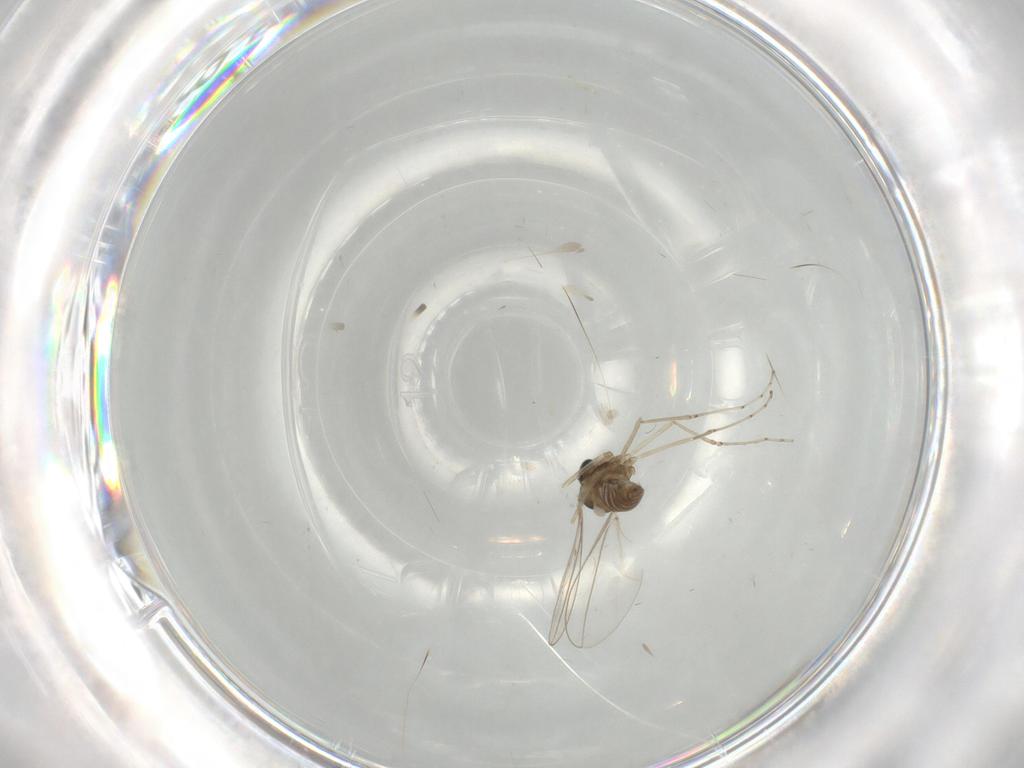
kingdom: Animalia
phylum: Arthropoda
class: Insecta
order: Diptera
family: Cecidomyiidae
